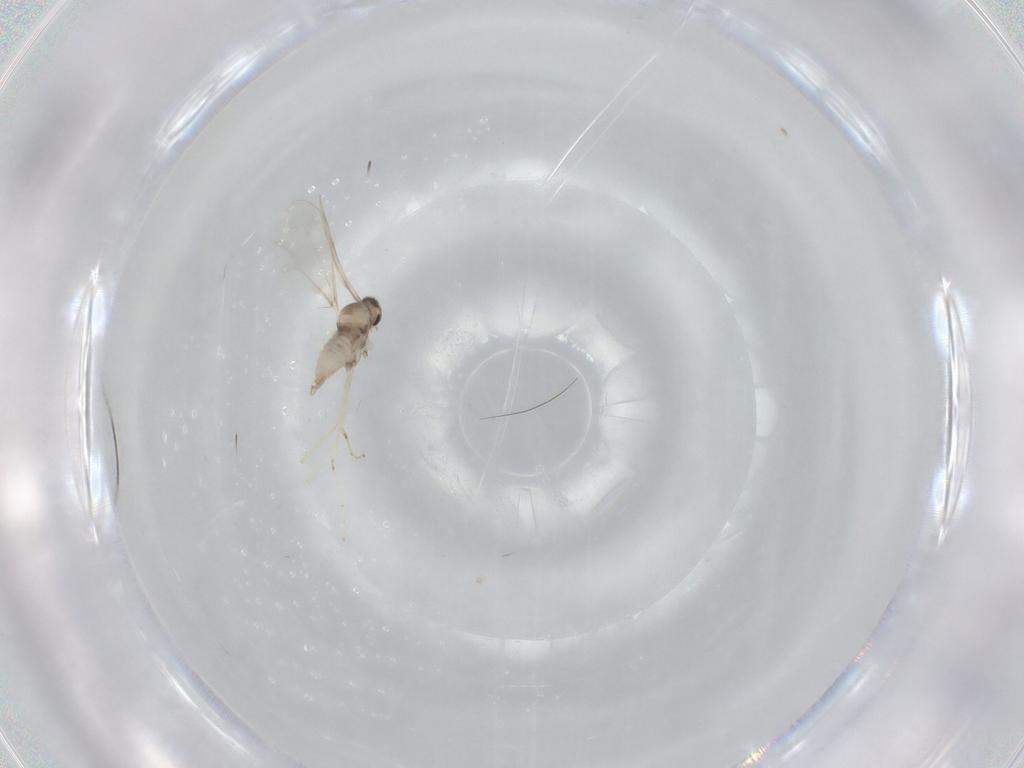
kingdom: Animalia
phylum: Arthropoda
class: Insecta
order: Diptera
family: Cecidomyiidae
